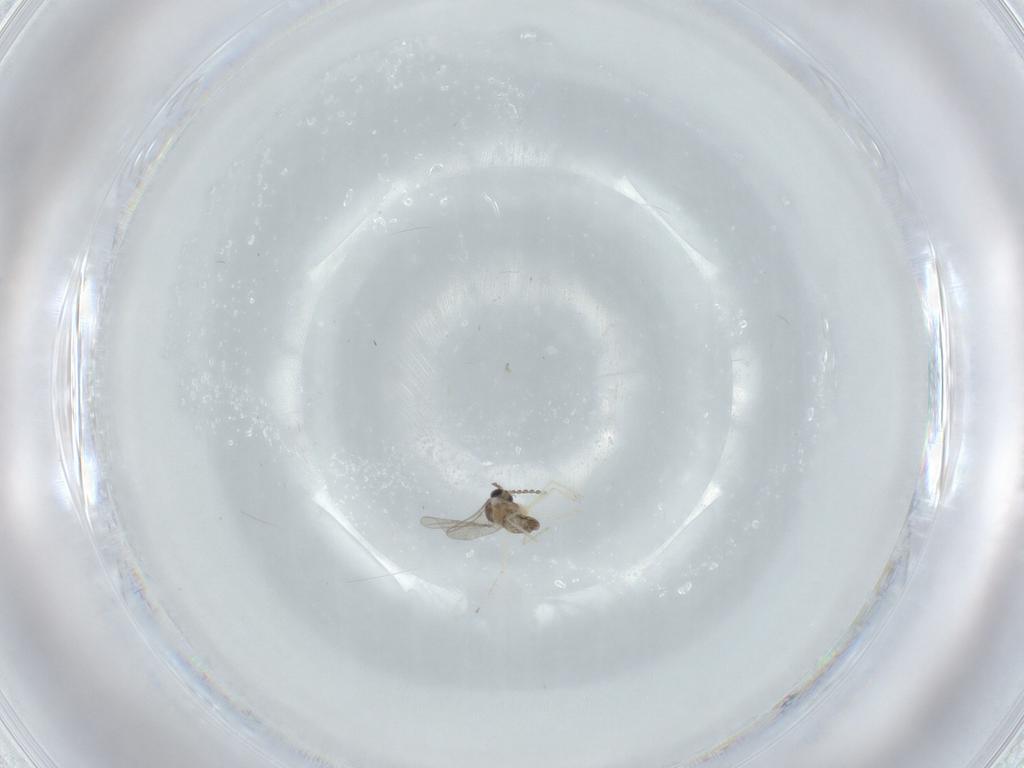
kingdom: Animalia
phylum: Arthropoda
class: Insecta
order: Diptera
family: Cecidomyiidae
